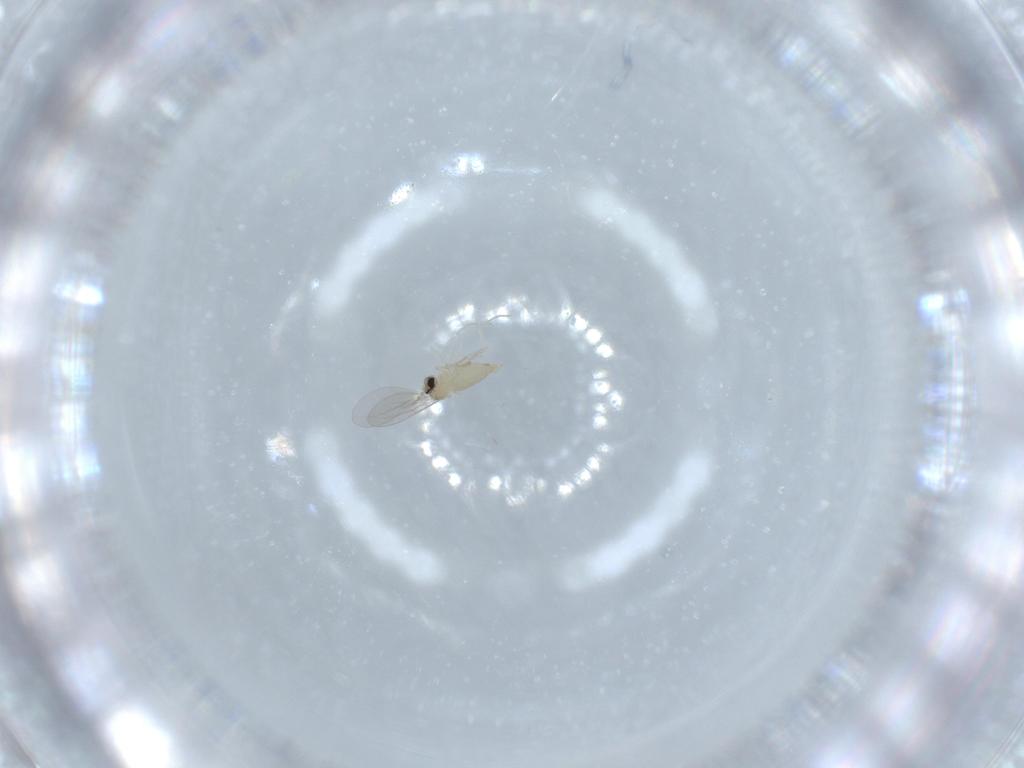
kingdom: Animalia
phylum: Arthropoda
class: Insecta
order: Diptera
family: Cecidomyiidae
